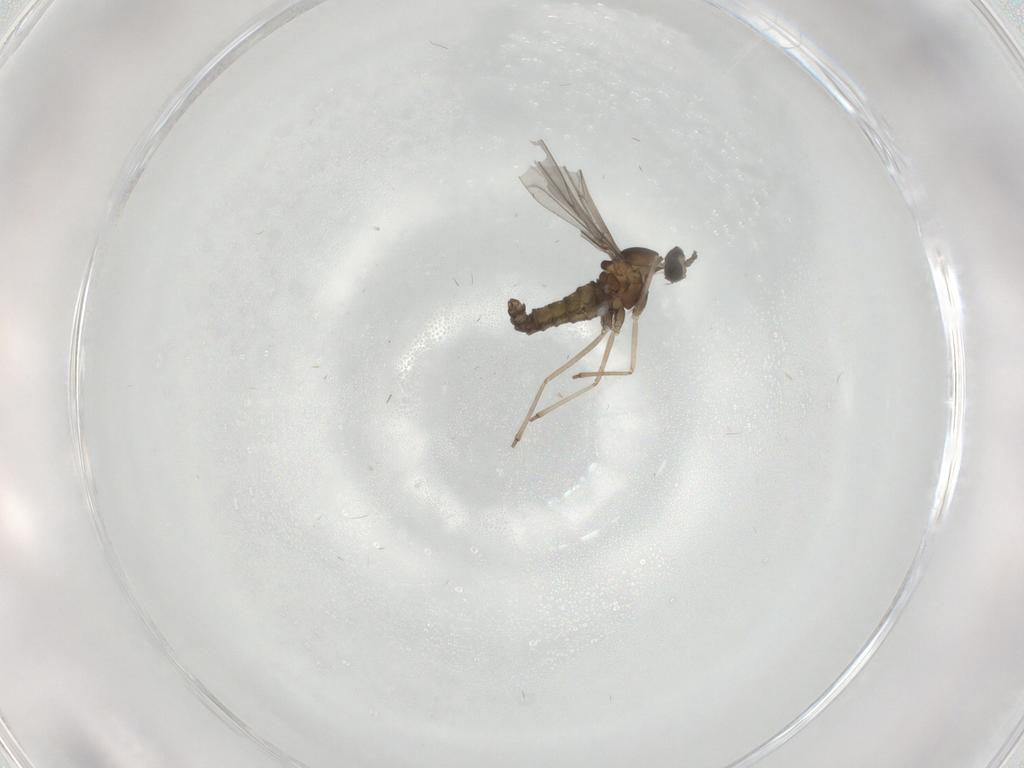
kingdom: Animalia
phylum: Arthropoda
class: Insecta
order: Diptera
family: Cecidomyiidae
